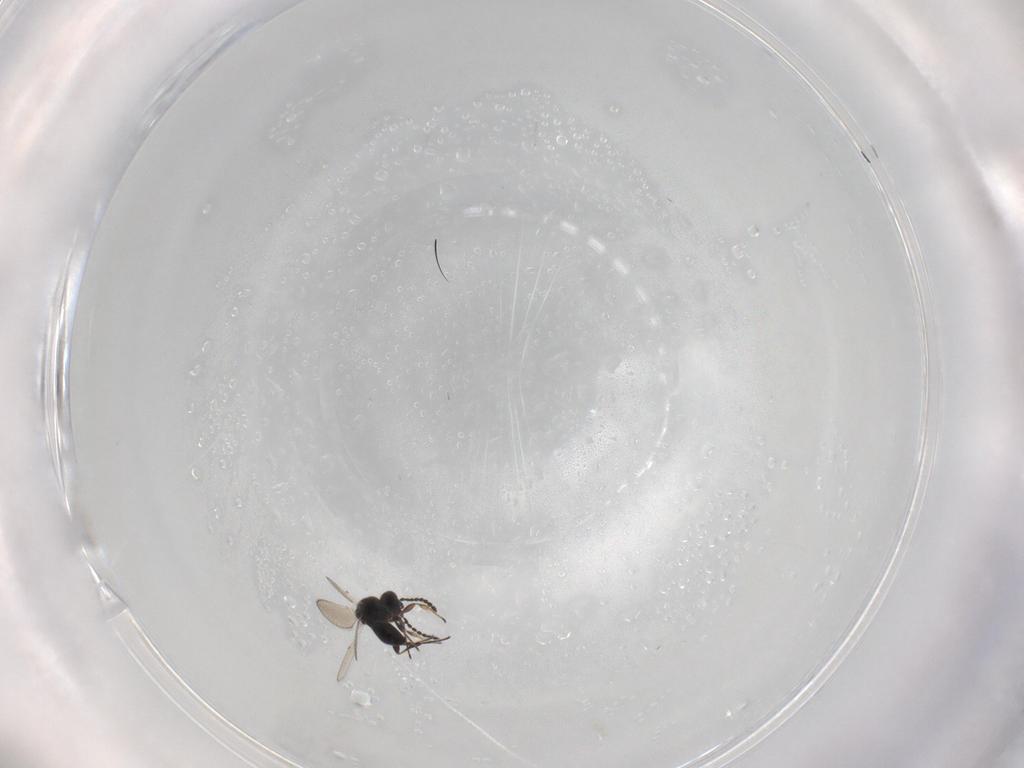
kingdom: Animalia
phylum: Arthropoda
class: Insecta
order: Hymenoptera
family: Platygastridae
